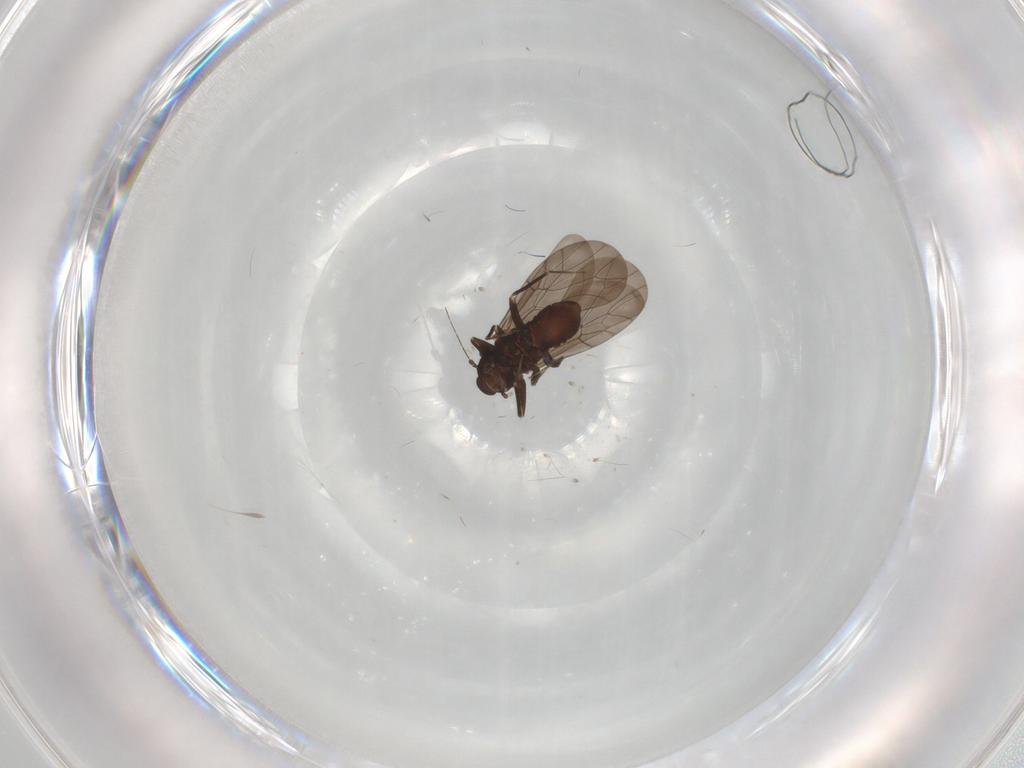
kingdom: Animalia
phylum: Arthropoda
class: Insecta
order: Psocodea
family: Lepidopsocidae
